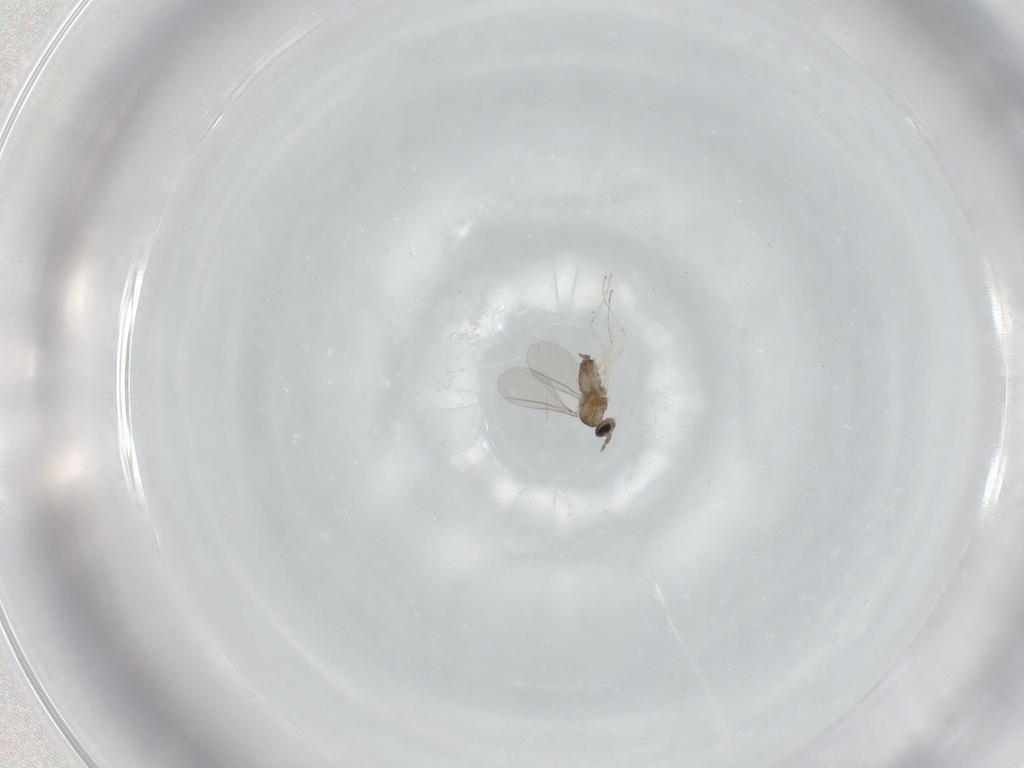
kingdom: Animalia
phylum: Arthropoda
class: Insecta
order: Diptera
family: Cecidomyiidae
